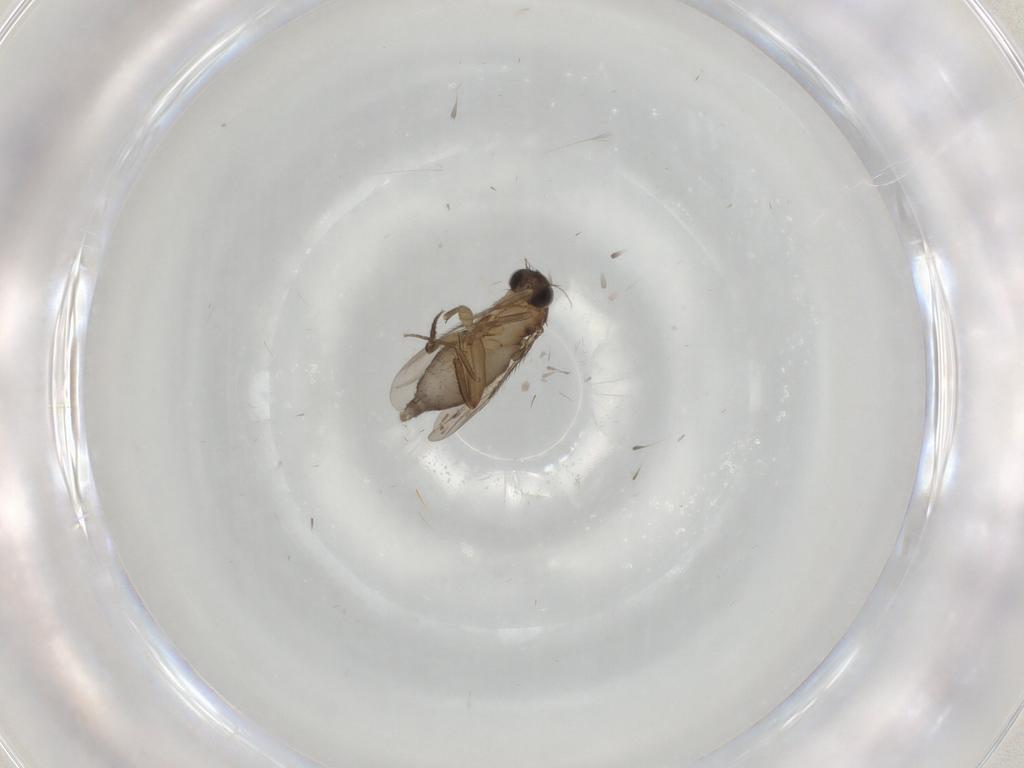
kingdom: Animalia
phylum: Arthropoda
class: Insecta
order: Diptera
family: Phoridae
